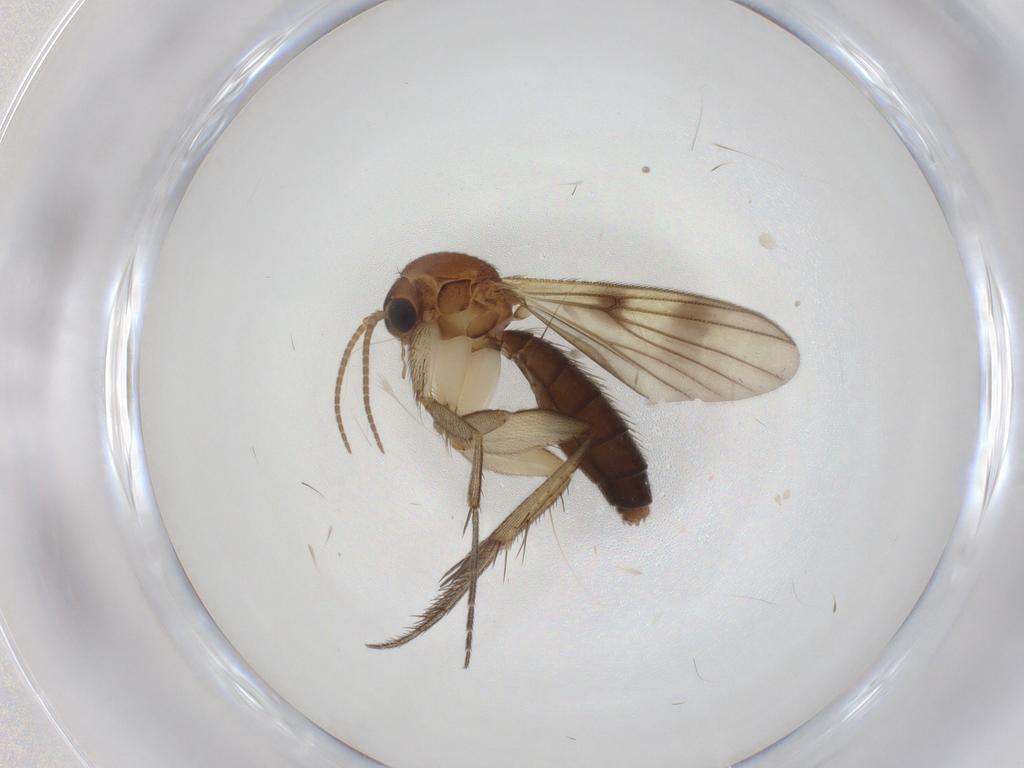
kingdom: Animalia
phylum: Arthropoda
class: Insecta
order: Diptera
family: Mycetophilidae
